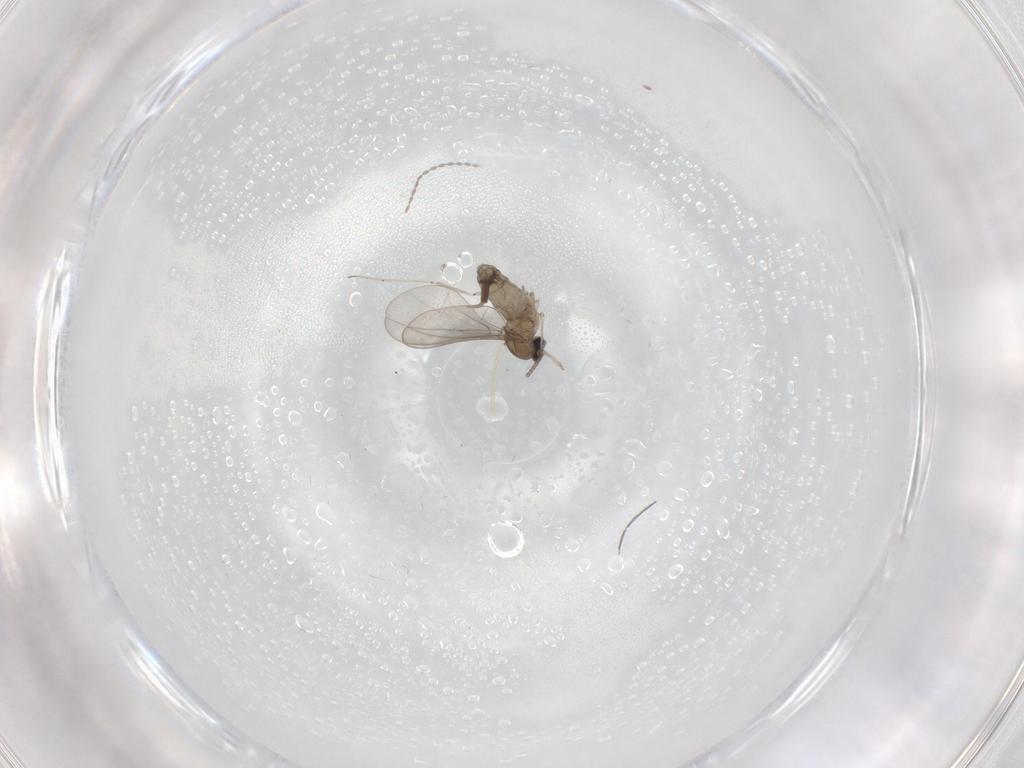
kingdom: Animalia
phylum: Arthropoda
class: Insecta
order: Diptera
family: Cecidomyiidae
